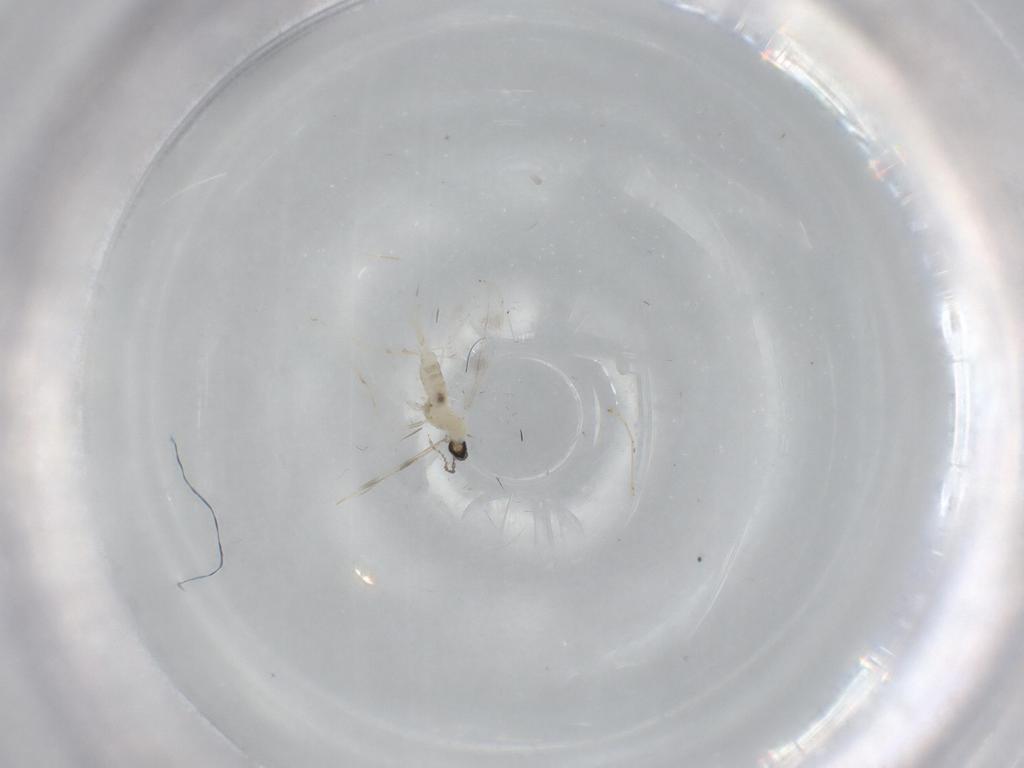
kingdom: Animalia
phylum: Arthropoda
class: Insecta
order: Diptera
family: Cecidomyiidae
